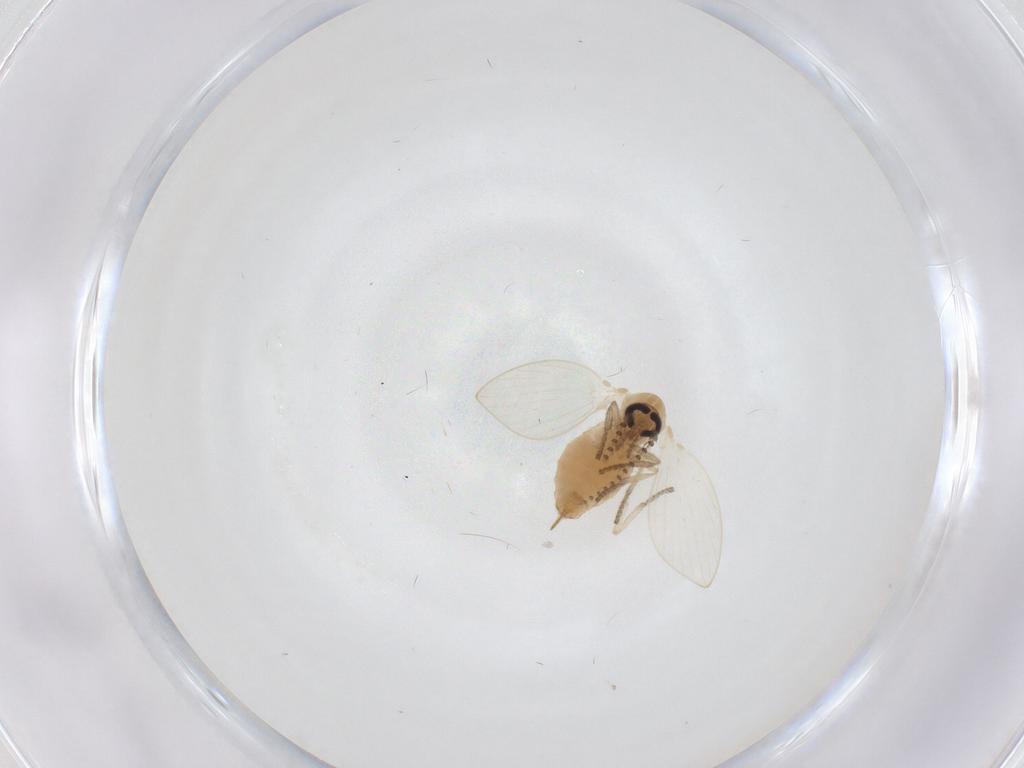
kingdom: Animalia
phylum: Arthropoda
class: Insecta
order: Diptera
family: Psychodidae
